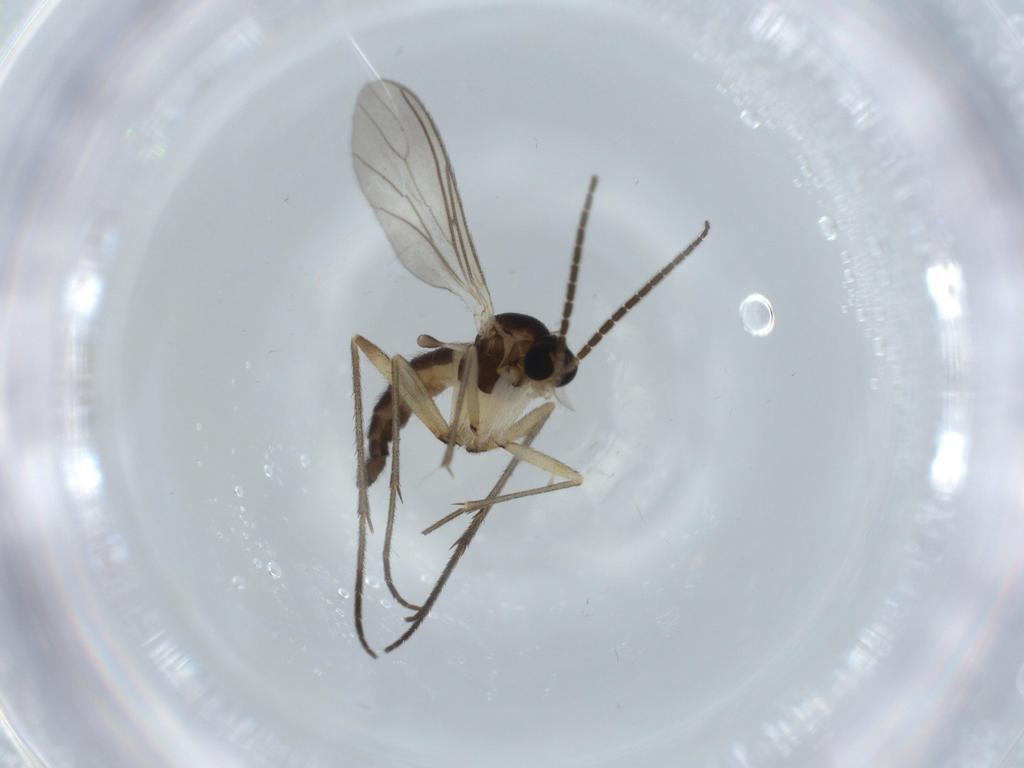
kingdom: Animalia
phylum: Arthropoda
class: Insecta
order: Diptera
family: Sciaridae
